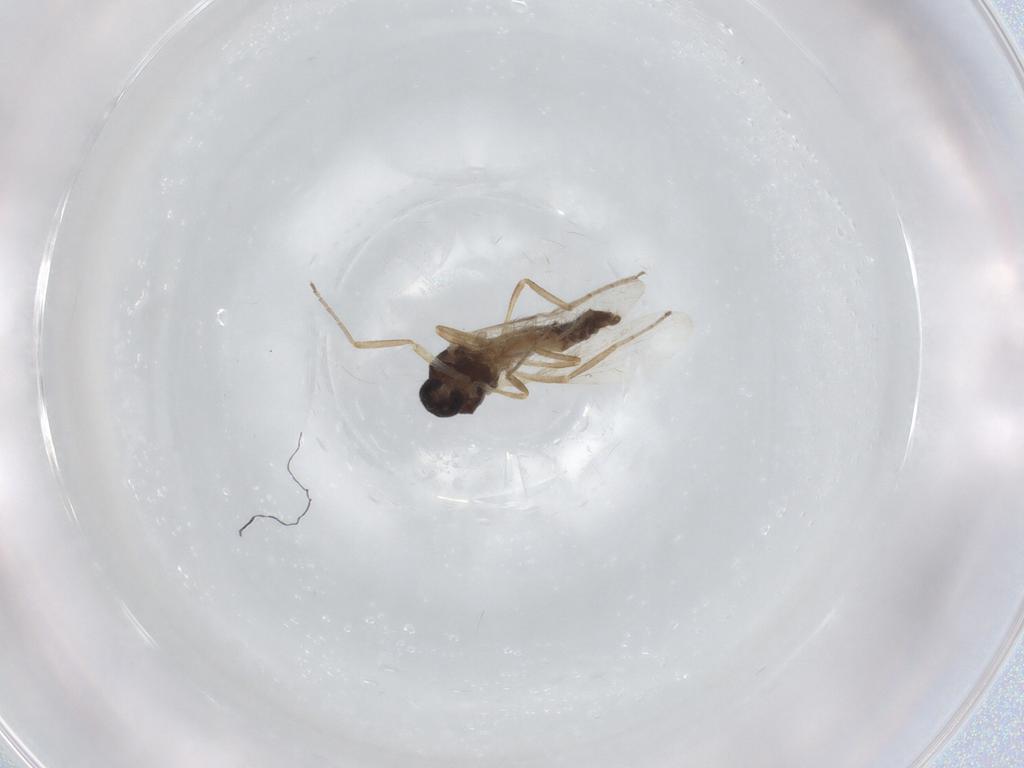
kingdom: Animalia
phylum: Arthropoda
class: Insecta
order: Diptera
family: Ceratopogonidae
